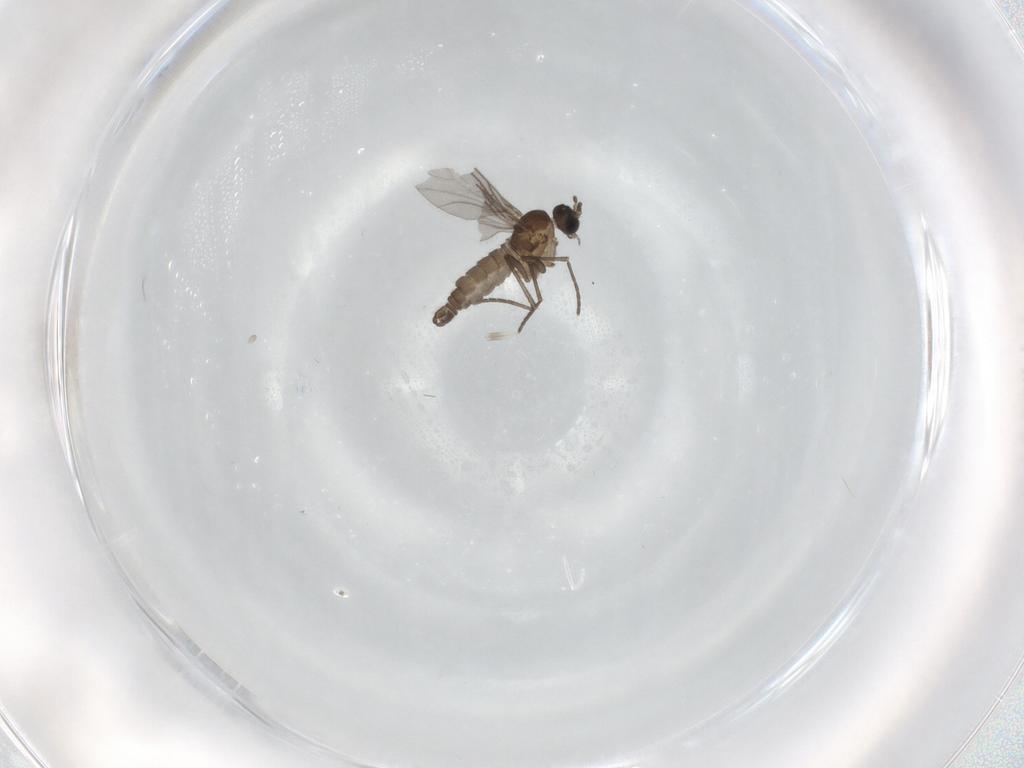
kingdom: Animalia
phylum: Arthropoda
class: Insecta
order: Diptera
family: Sciaridae
